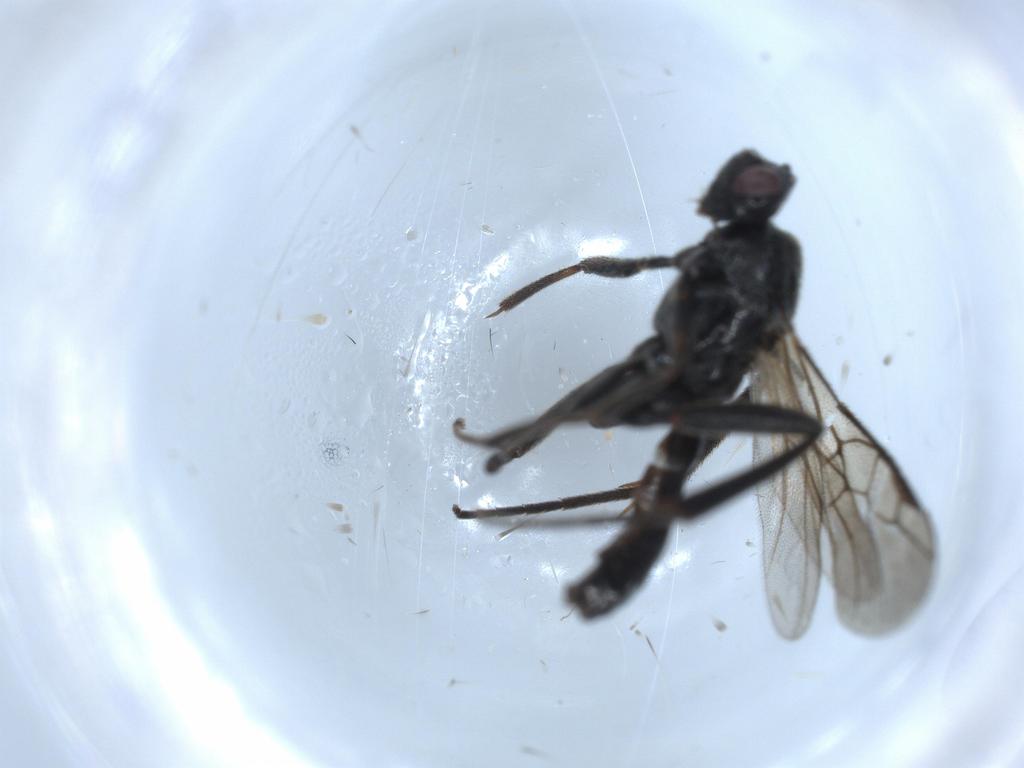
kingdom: Animalia
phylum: Arthropoda
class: Insecta
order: Hymenoptera
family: Braconidae
